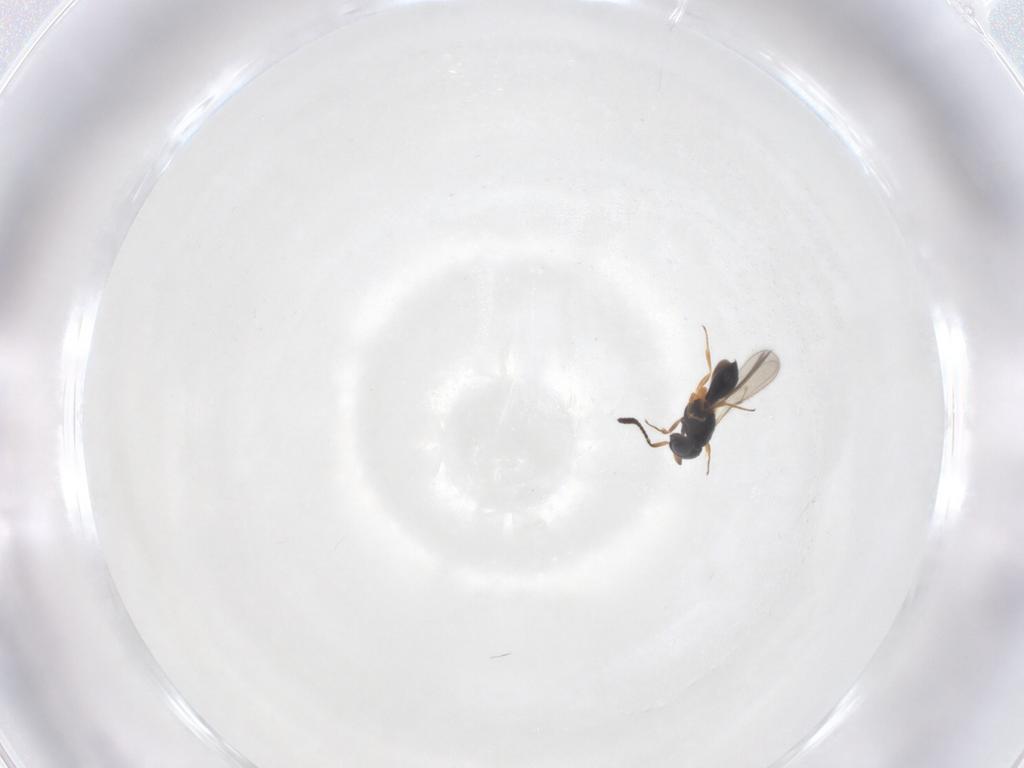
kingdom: Animalia
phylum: Arthropoda
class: Insecta
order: Hymenoptera
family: Scelionidae
